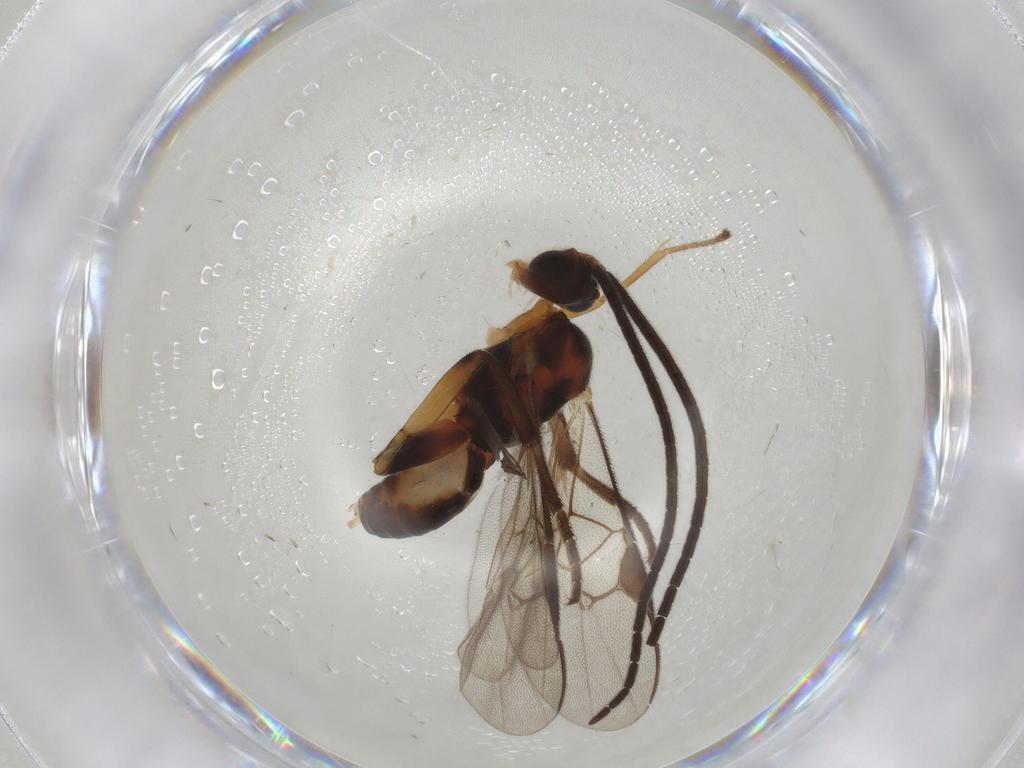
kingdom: Animalia
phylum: Arthropoda
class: Insecta
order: Hymenoptera
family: Braconidae
